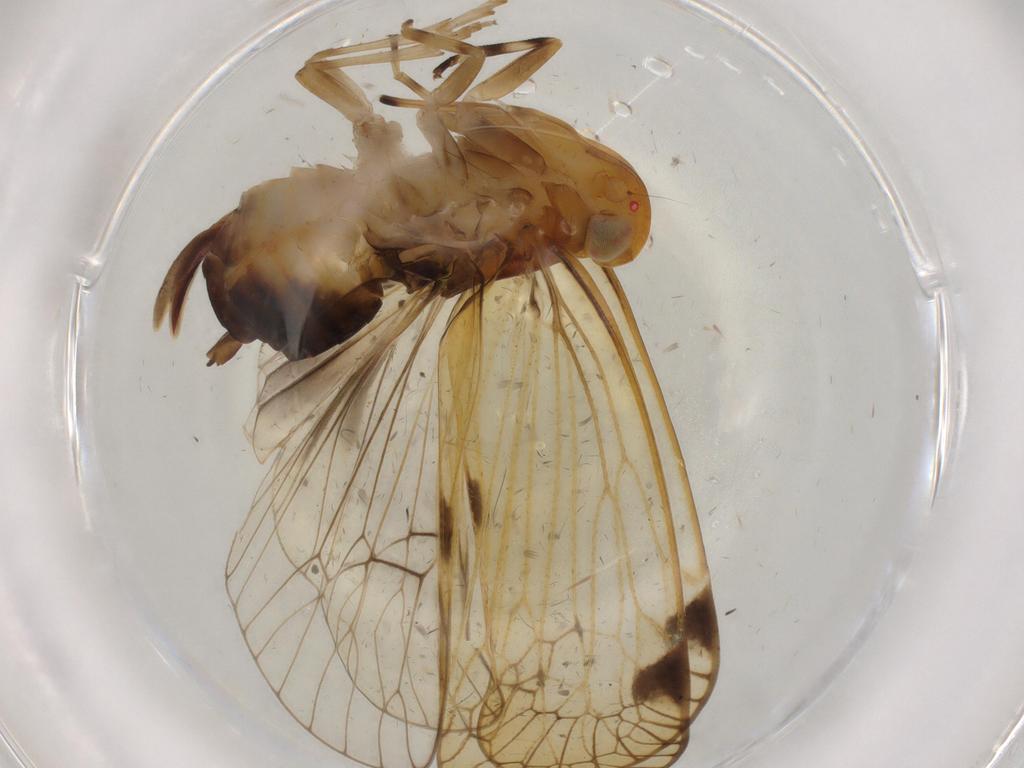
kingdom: Animalia
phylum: Arthropoda
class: Insecta
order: Hemiptera
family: Cixiidae
